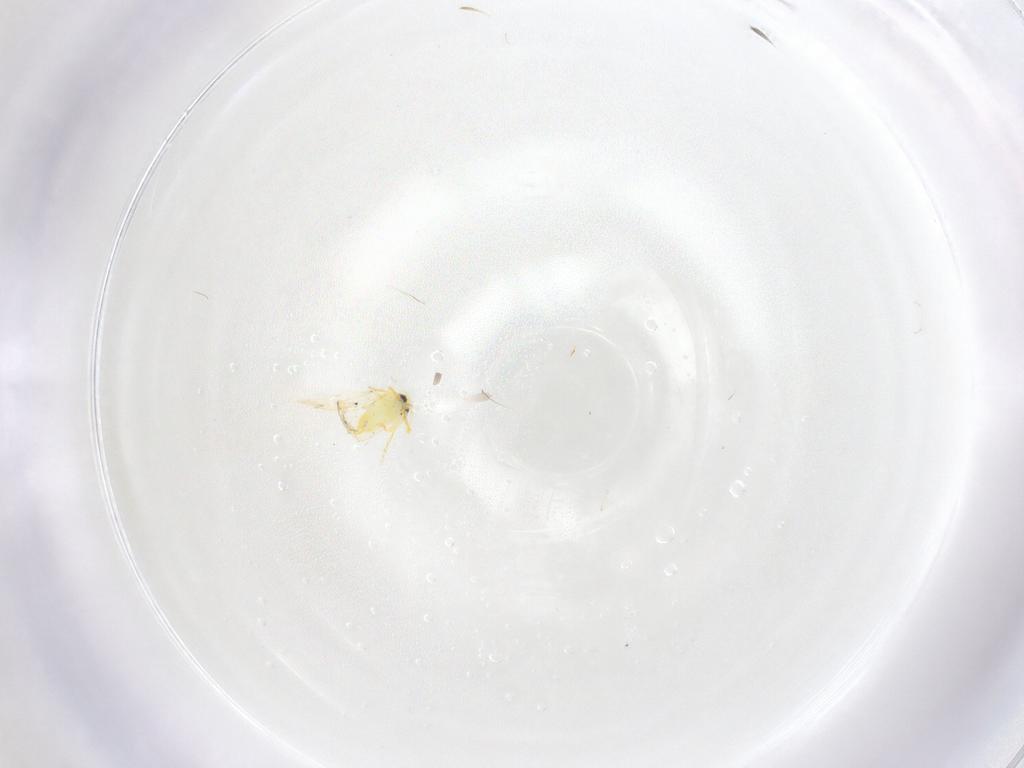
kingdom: Animalia
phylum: Arthropoda
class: Insecta
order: Hemiptera
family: Aleyrodidae
